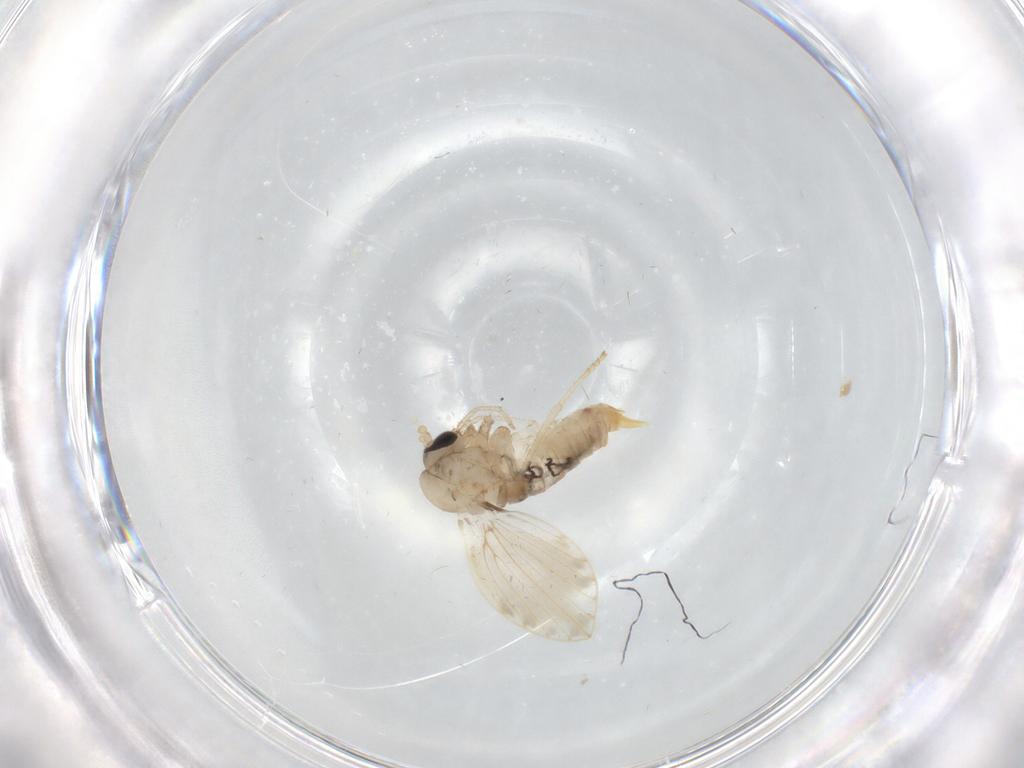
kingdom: Animalia
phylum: Arthropoda
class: Insecta
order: Diptera
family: Psychodidae
